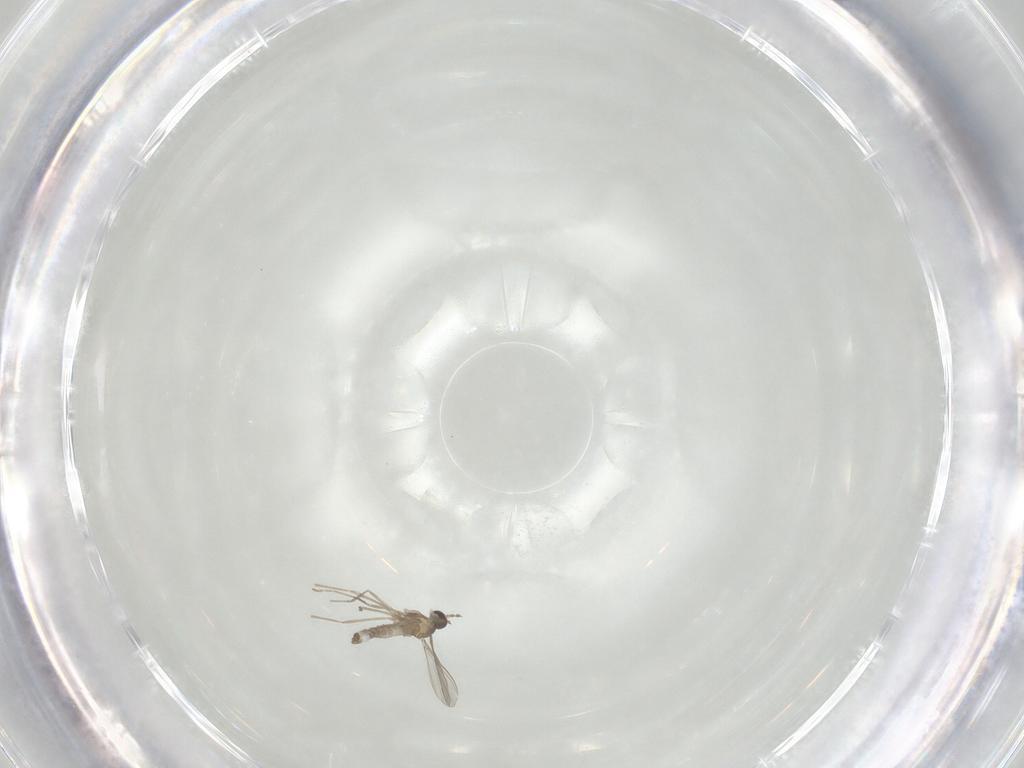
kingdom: Animalia
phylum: Arthropoda
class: Insecta
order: Diptera
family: Cecidomyiidae
